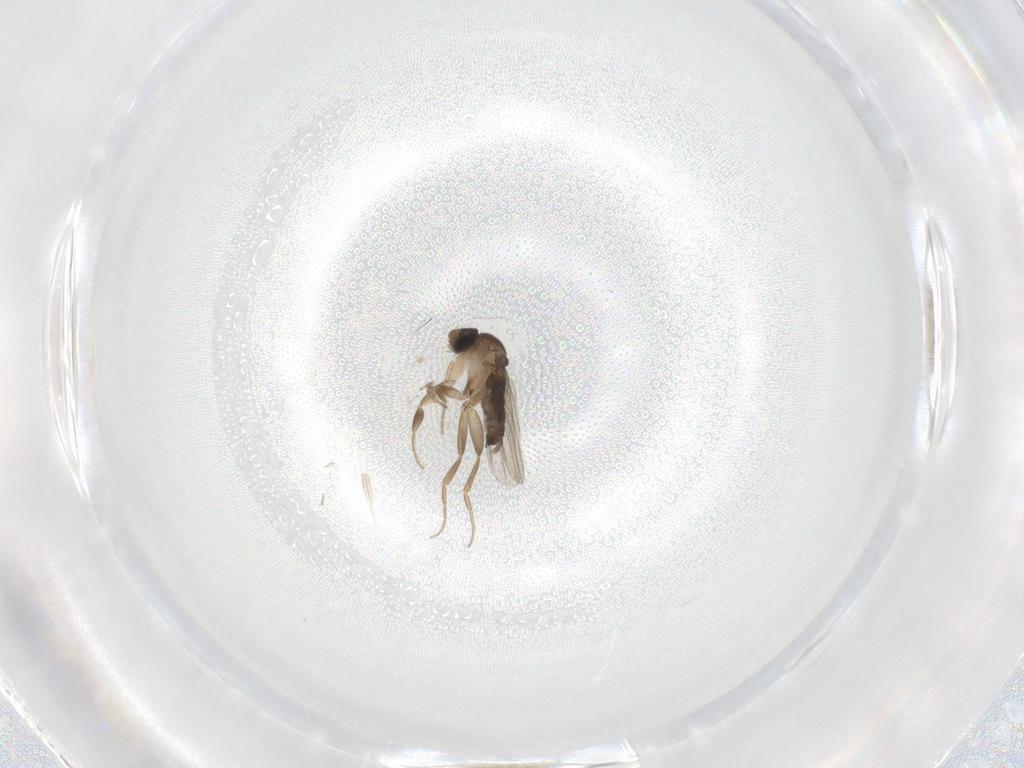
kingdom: Animalia
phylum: Arthropoda
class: Insecta
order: Diptera
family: Phoridae
